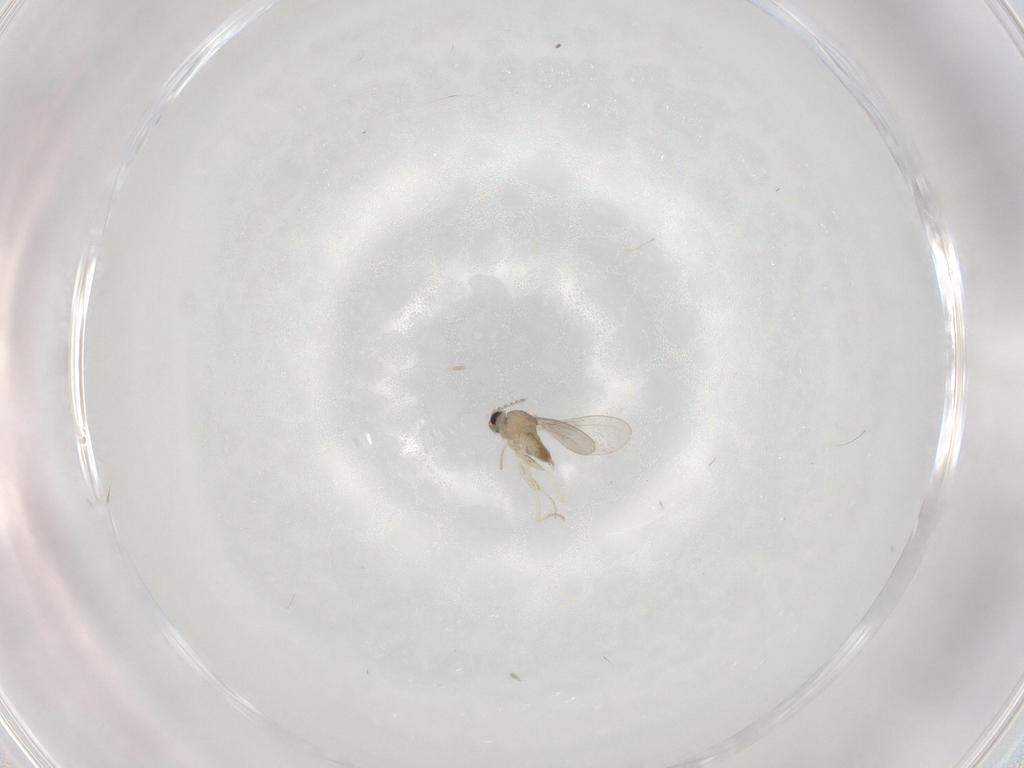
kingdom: Animalia
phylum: Arthropoda
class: Insecta
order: Diptera
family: Cecidomyiidae
